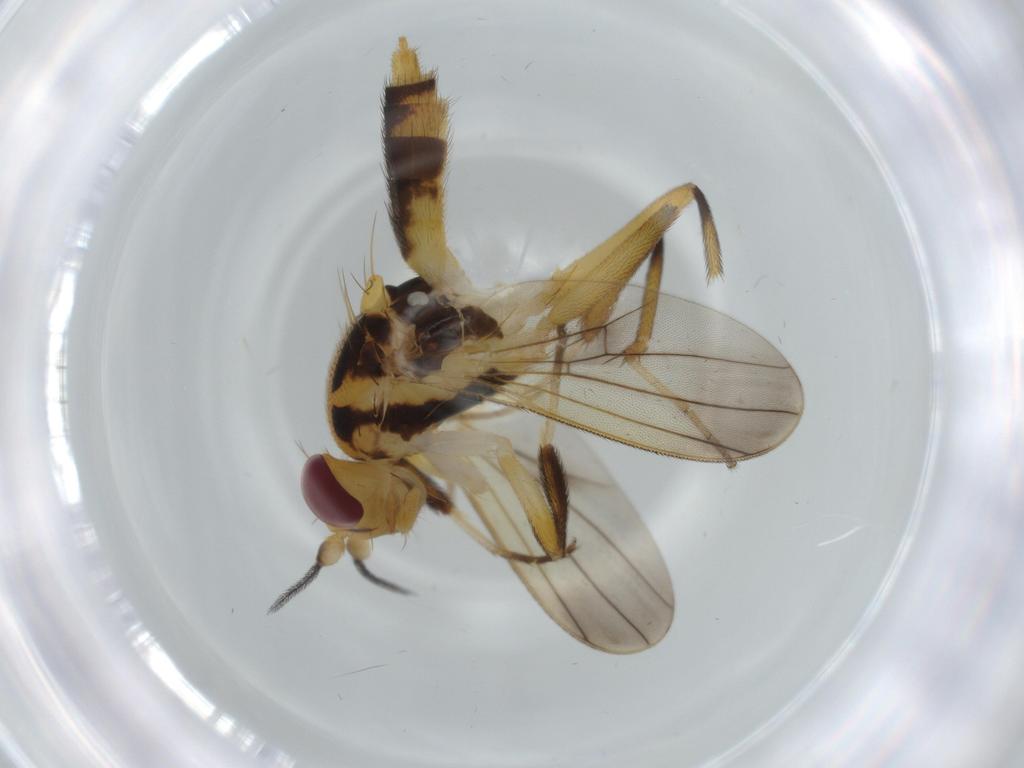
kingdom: Animalia
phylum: Arthropoda
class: Insecta
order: Diptera
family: Clusiidae
